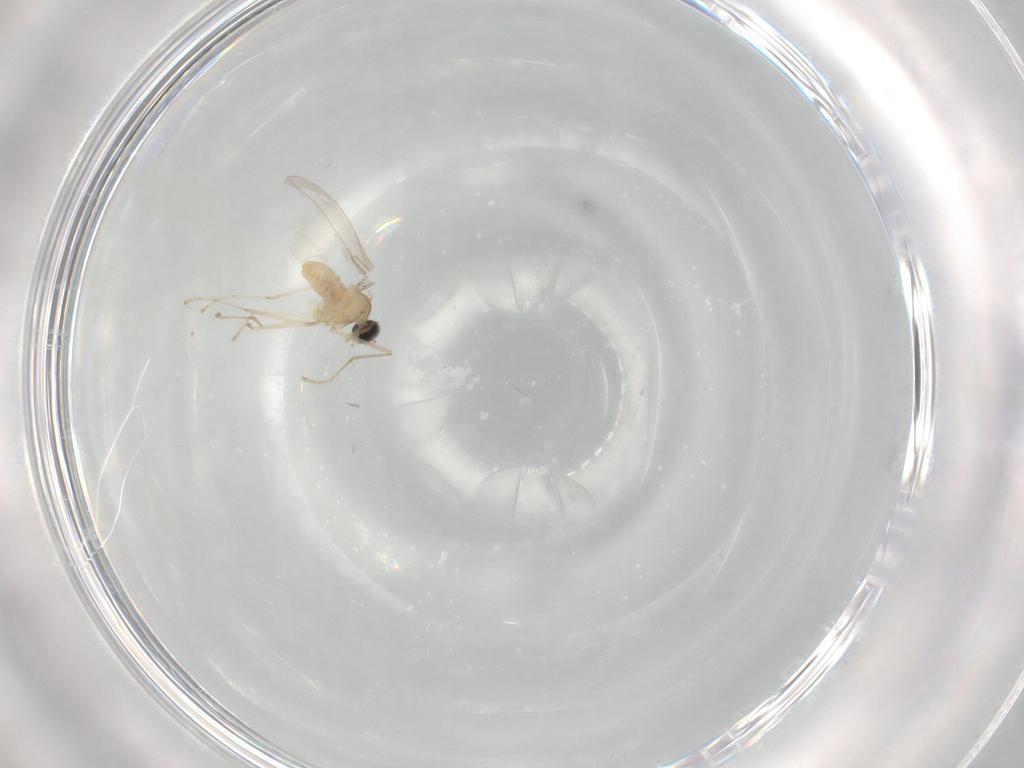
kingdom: Animalia
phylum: Arthropoda
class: Insecta
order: Diptera
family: Cecidomyiidae
